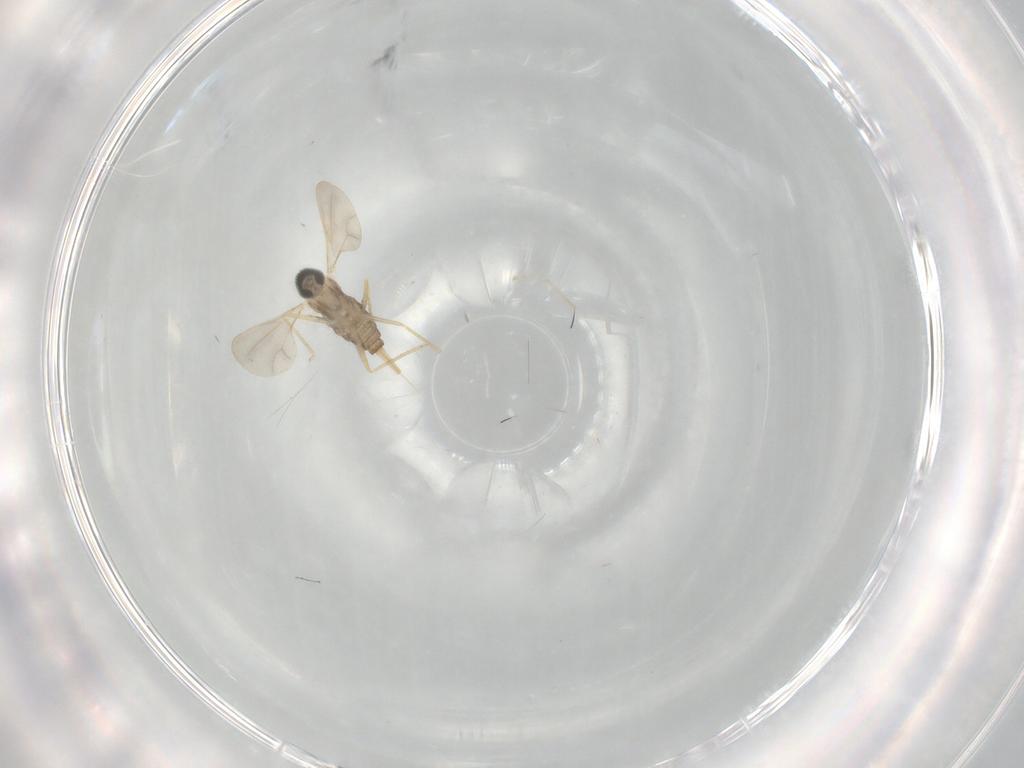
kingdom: Animalia
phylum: Arthropoda
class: Insecta
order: Diptera
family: Cecidomyiidae
